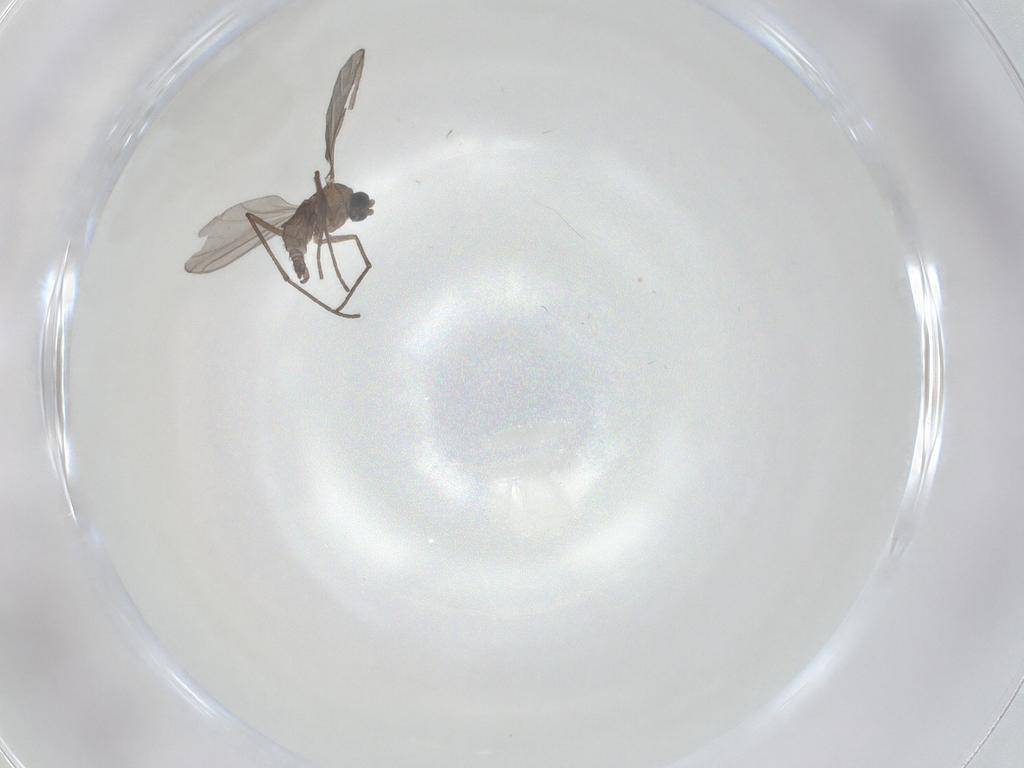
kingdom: Animalia
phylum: Arthropoda
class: Insecta
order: Diptera
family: Sciaridae
